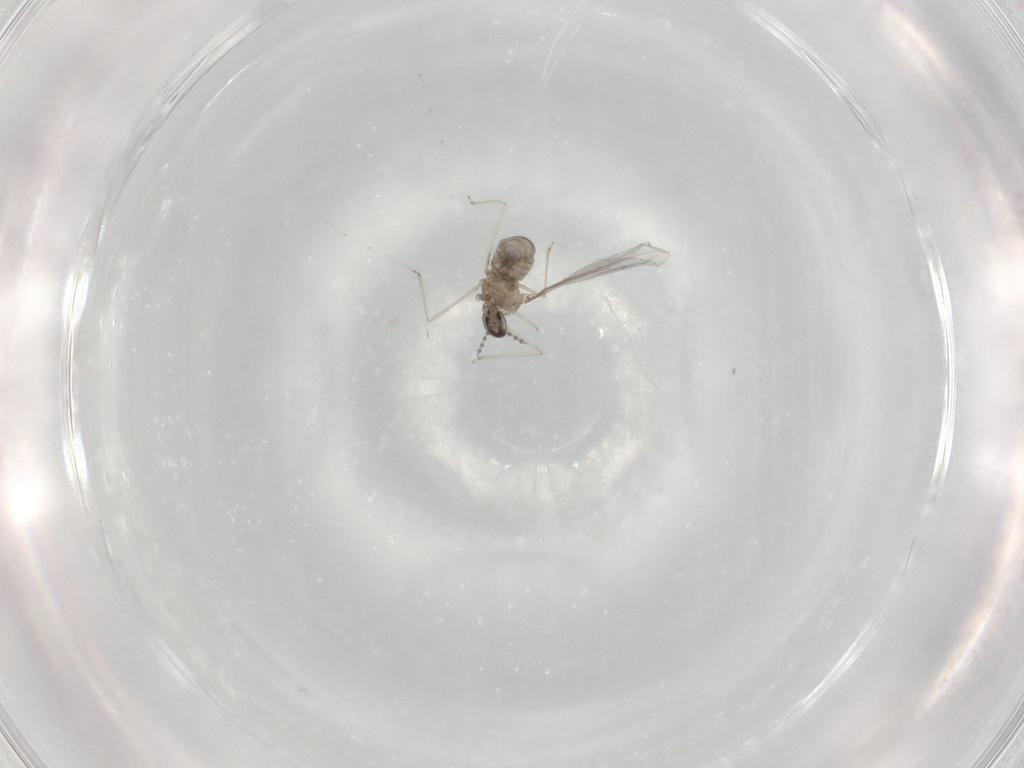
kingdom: Animalia
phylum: Arthropoda
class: Insecta
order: Diptera
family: Cecidomyiidae
